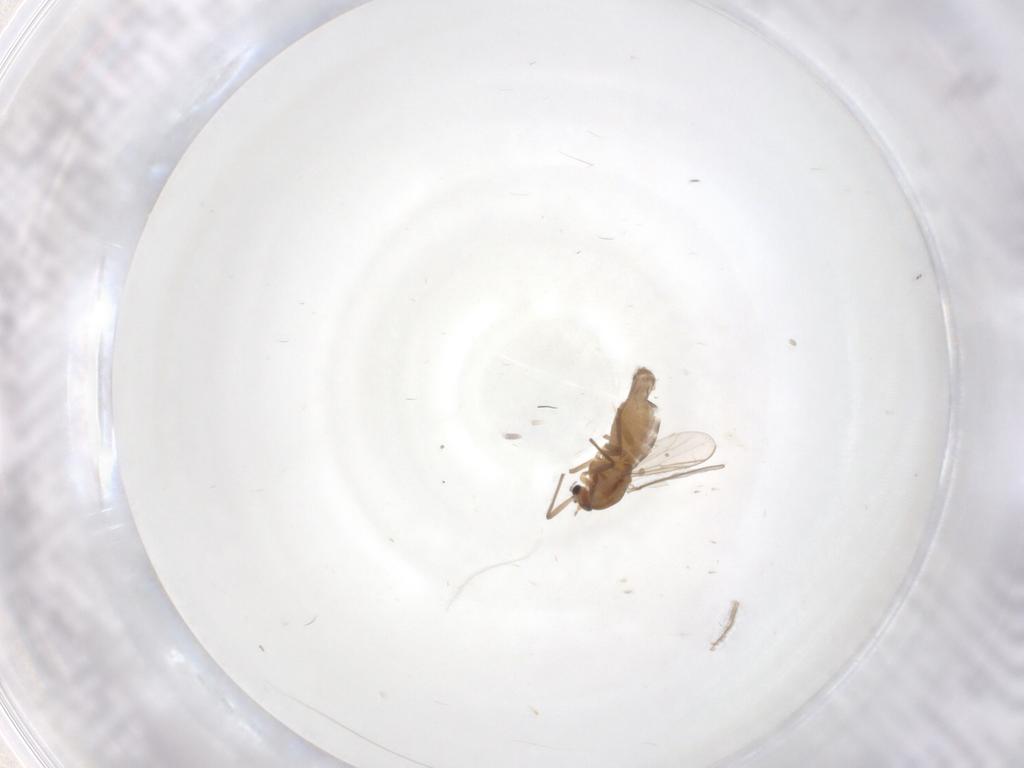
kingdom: Animalia
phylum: Arthropoda
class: Insecta
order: Diptera
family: Chironomidae
